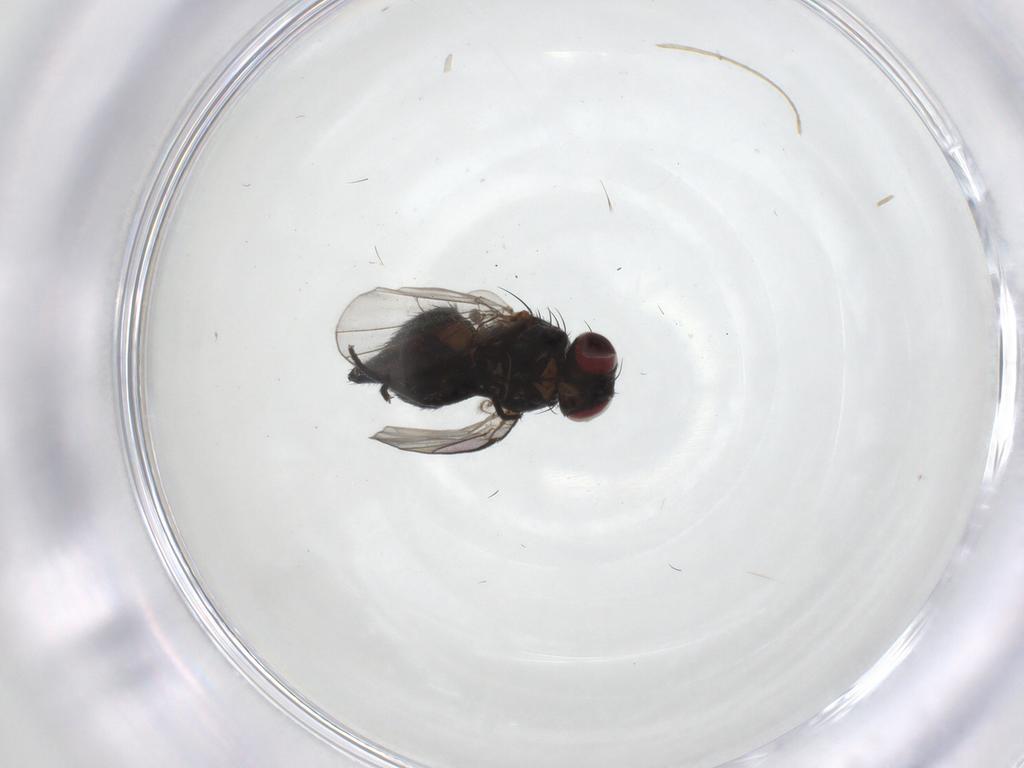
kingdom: Animalia
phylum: Arthropoda
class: Insecta
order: Diptera
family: Agromyzidae
